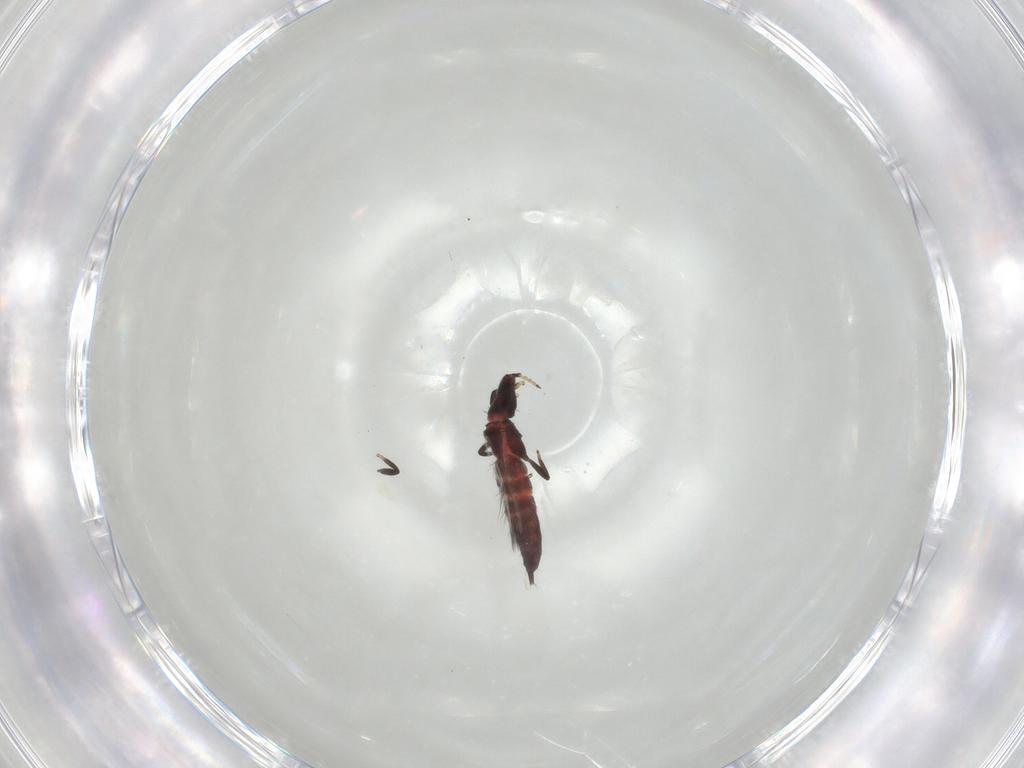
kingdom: Animalia
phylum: Arthropoda
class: Insecta
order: Thysanoptera
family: Phlaeothripidae
